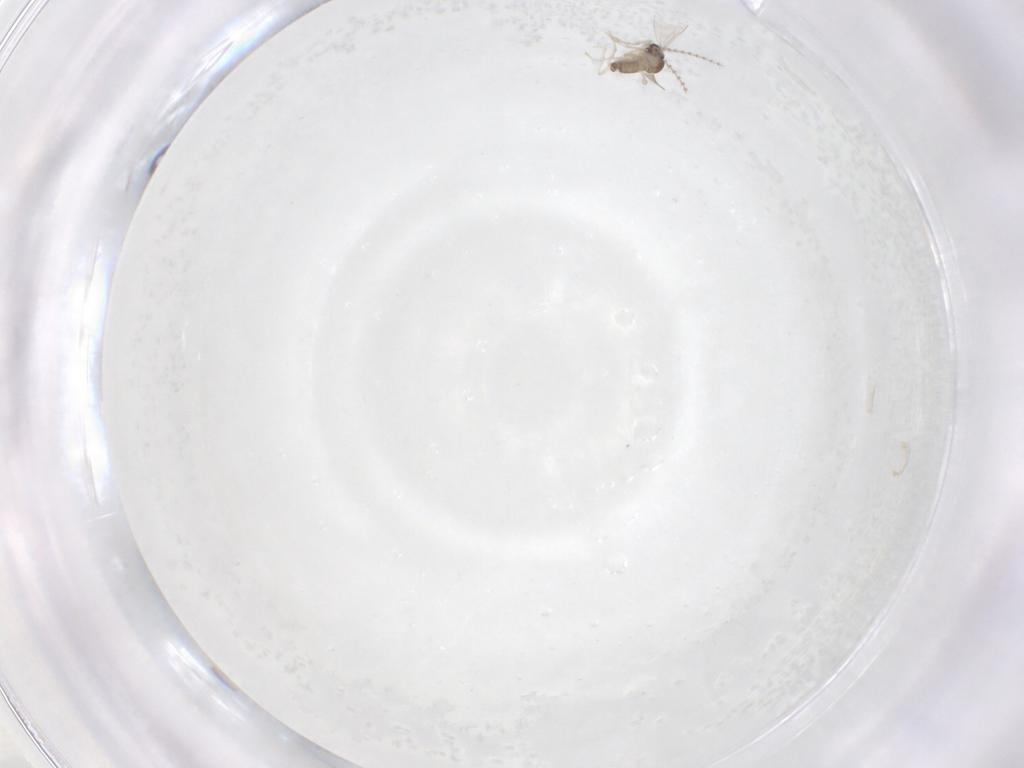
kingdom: Animalia
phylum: Arthropoda
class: Insecta
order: Diptera
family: Cecidomyiidae
